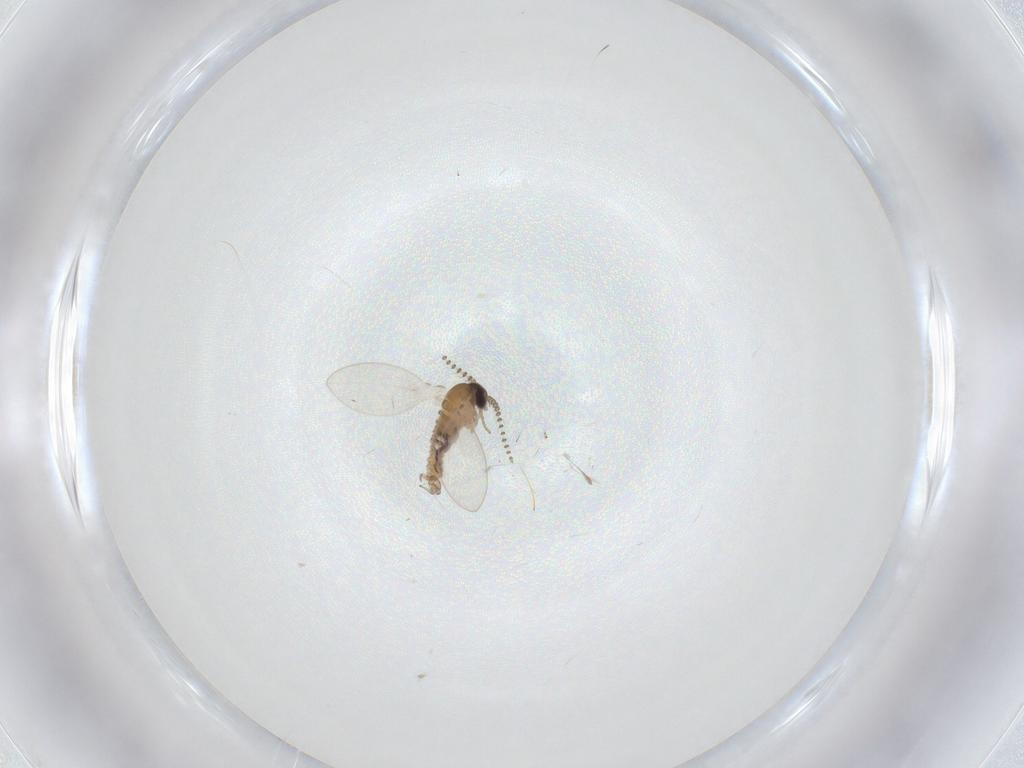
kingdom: Animalia
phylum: Arthropoda
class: Insecta
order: Diptera
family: Psychodidae
